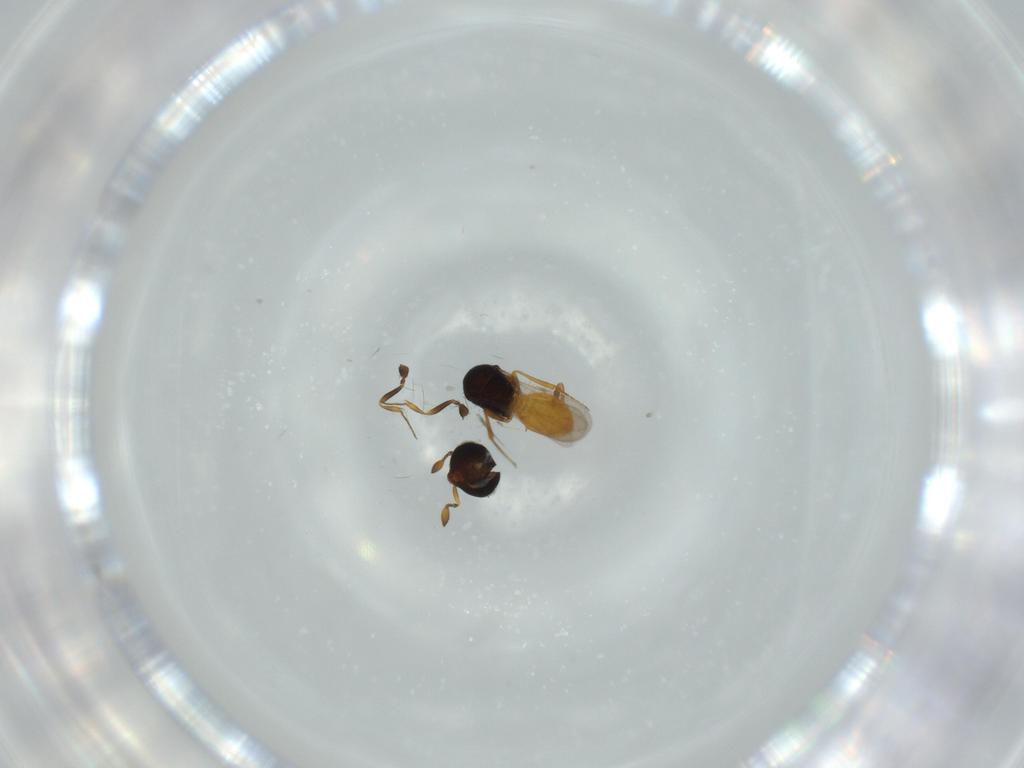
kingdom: Animalia
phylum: Arthropoda
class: Insecta
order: Hymenoptera
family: Scelionidae
